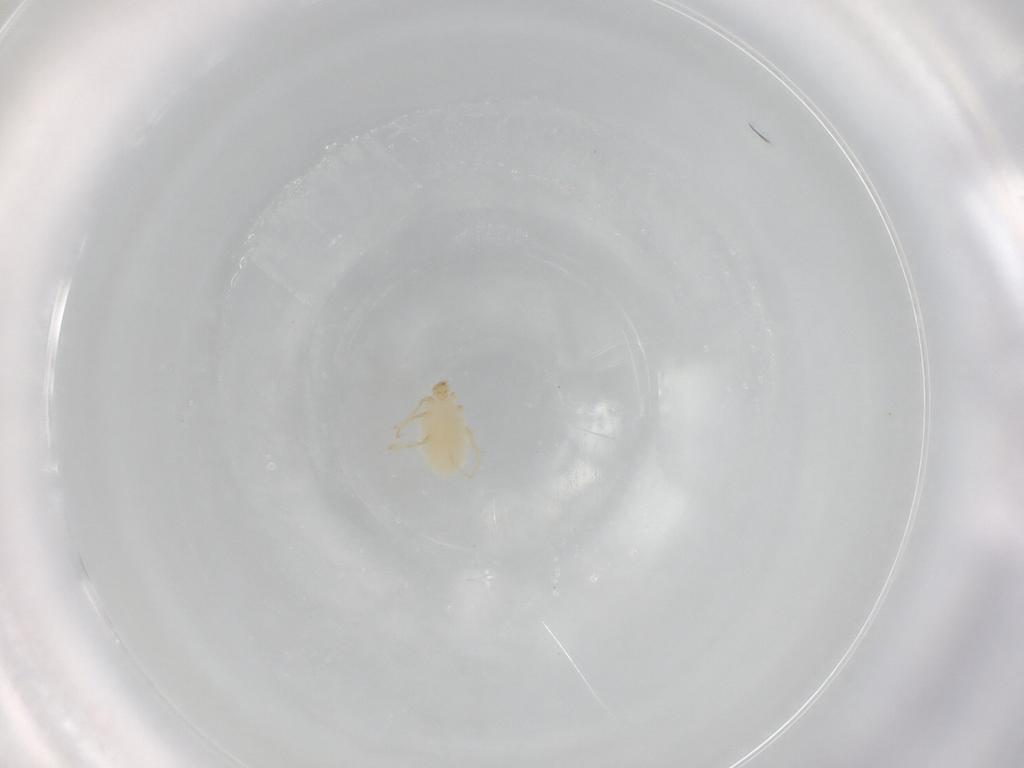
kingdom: Animalia
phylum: Arthropoda
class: Arachnida
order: Trombidiformes
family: Erythraeidae
